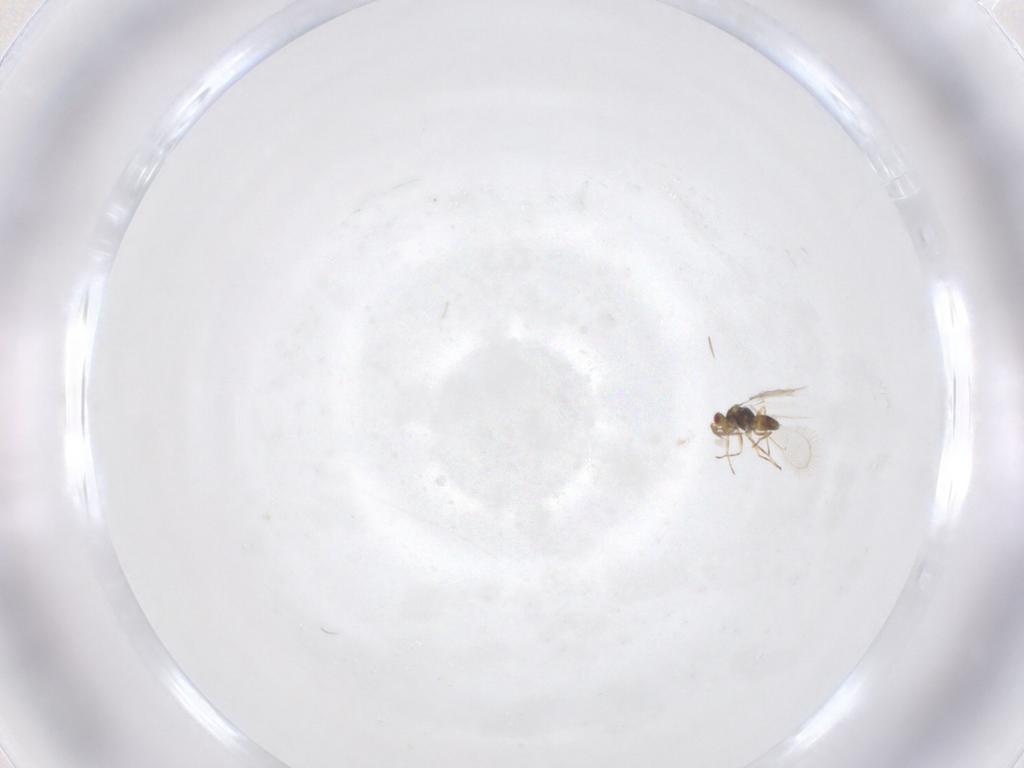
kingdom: Animalia
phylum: Arthropoda
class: Insecta
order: Hymenoptera
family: Eulophidae
